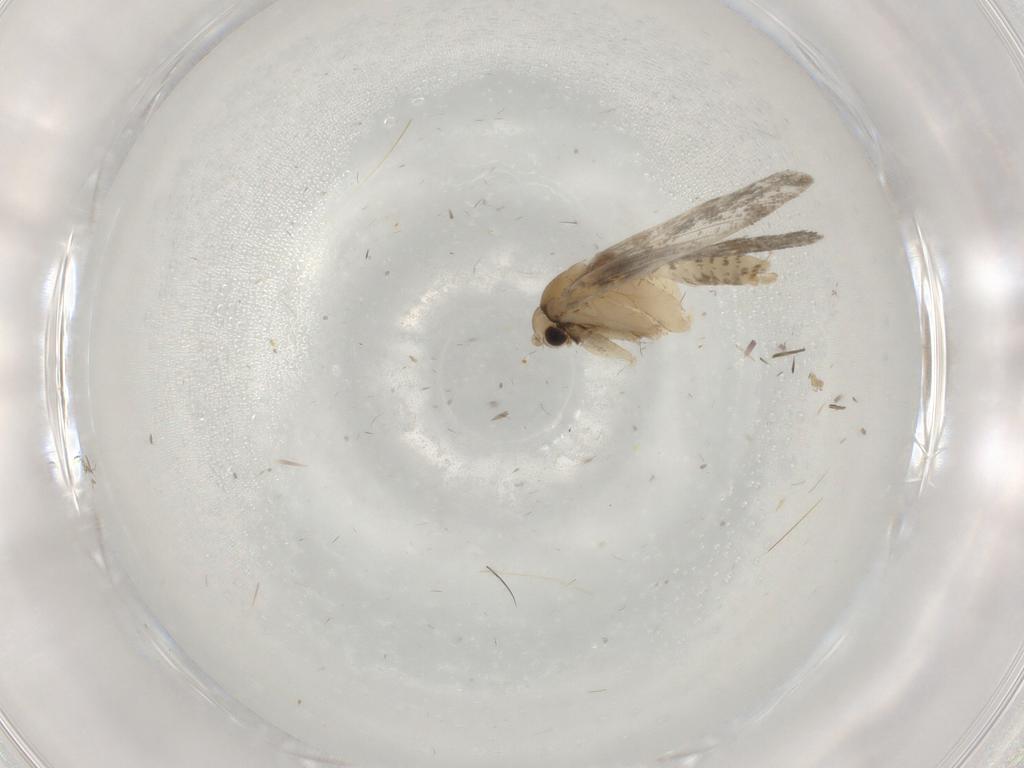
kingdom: Animalia
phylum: Arthropoda
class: Insecta
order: Lepidoptera
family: Psychidae
